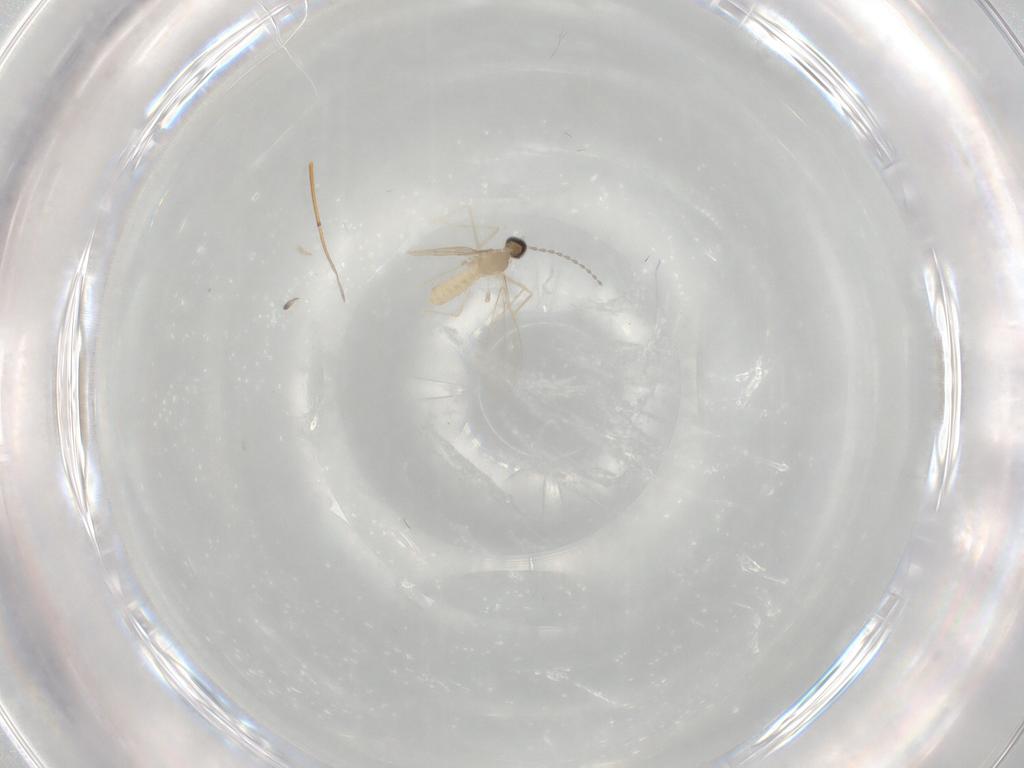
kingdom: Animalia
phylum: Arthropoda
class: Insecta
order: Diptera
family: Cecidomyiidae
